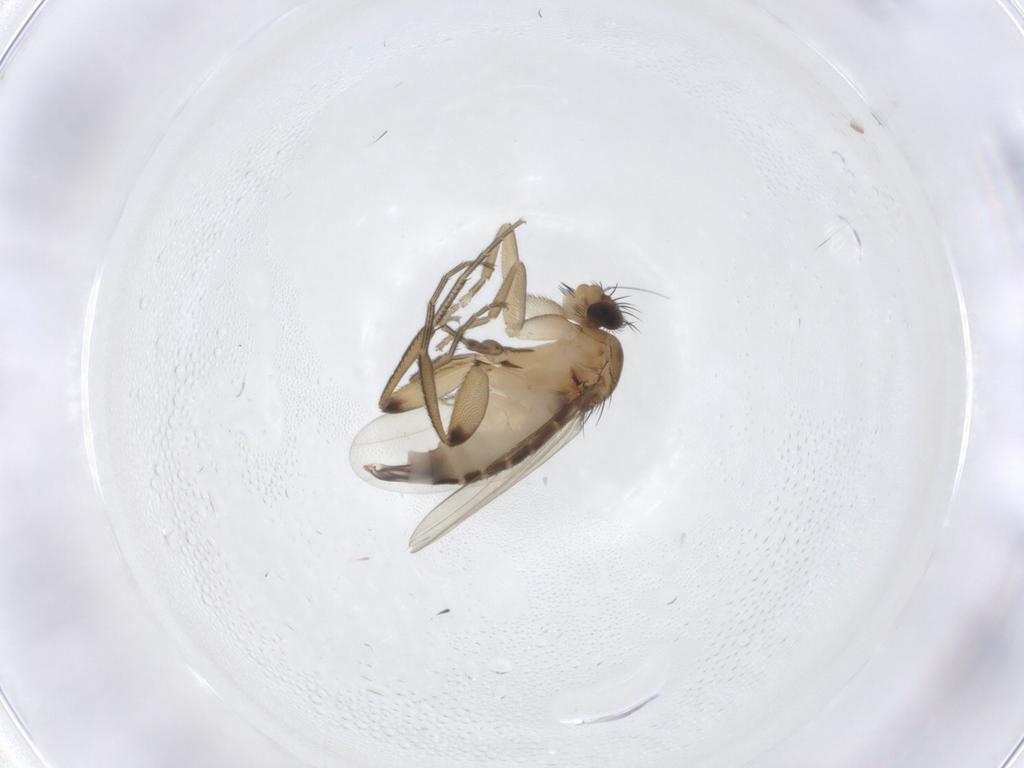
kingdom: Animalia
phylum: Arthropoda
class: Insecta
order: Diptera
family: Phoridae
